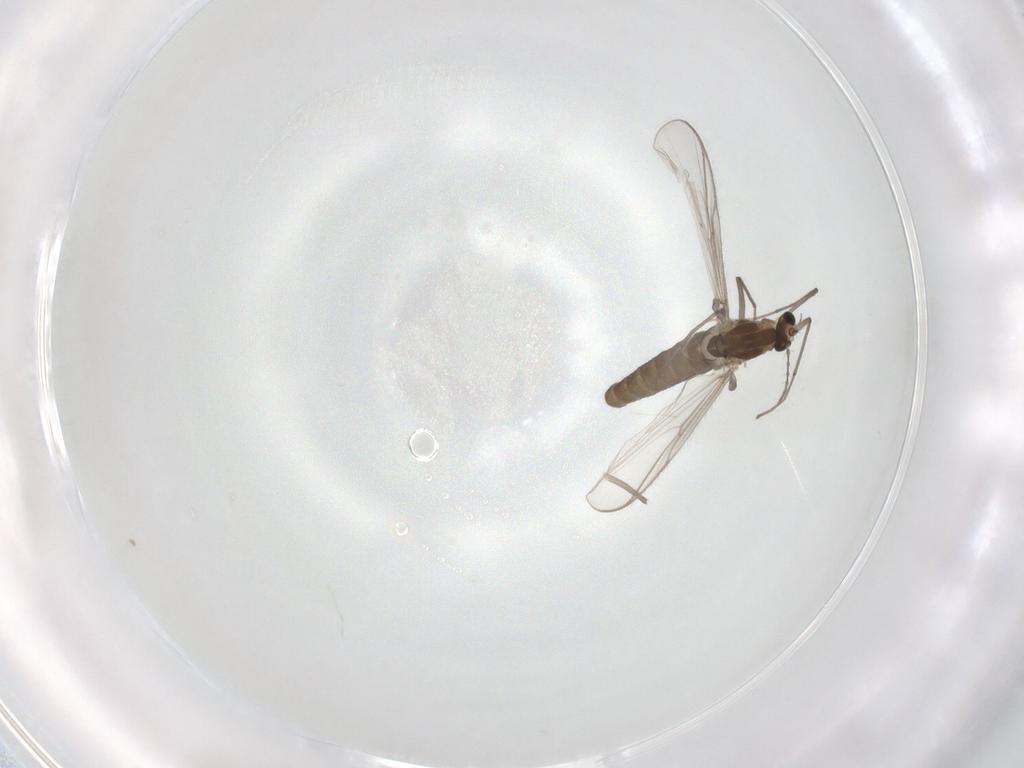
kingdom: Animalia
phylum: Arthropoda
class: Insecta
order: Diptera
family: Chironomidae
